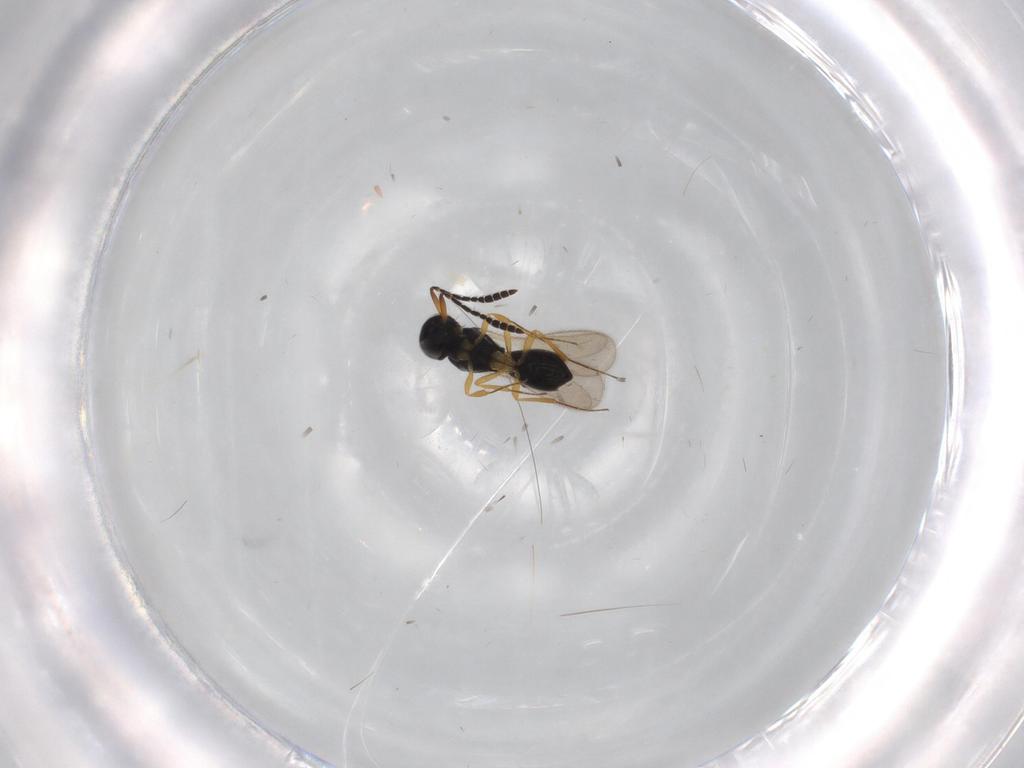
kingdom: Animalia
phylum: Arthropoda
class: Insecta
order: Hymenoptera
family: Scelionidae
